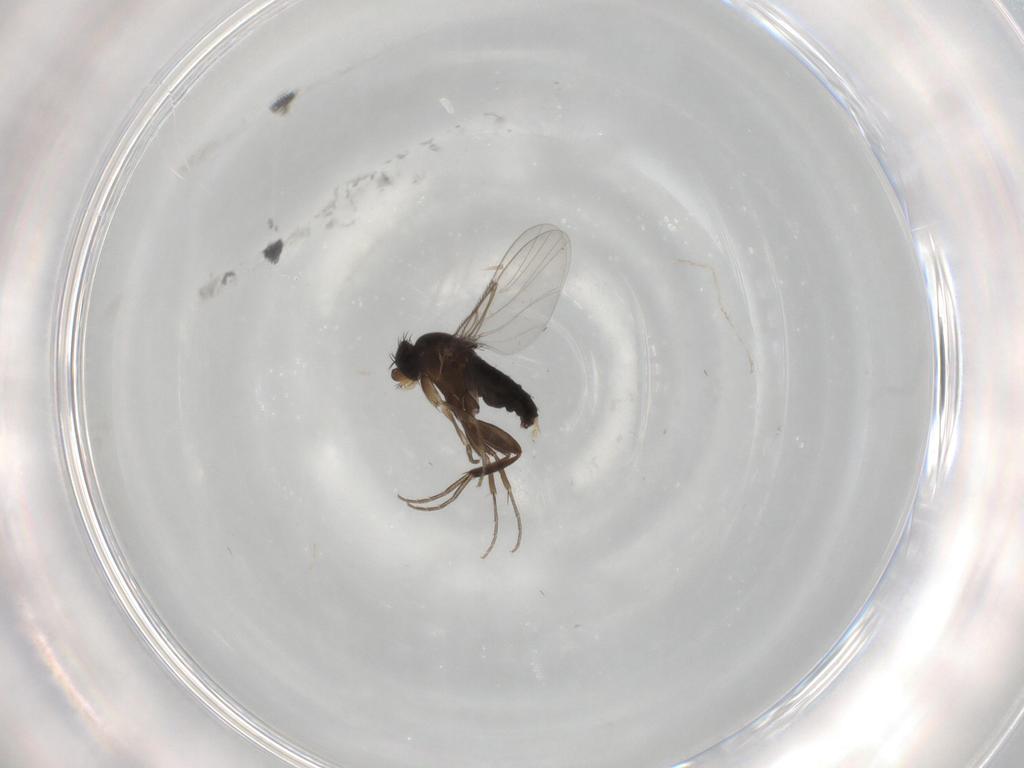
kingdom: Animalia
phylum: Arthropoda
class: Insecta
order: Diptera
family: Phoridae
